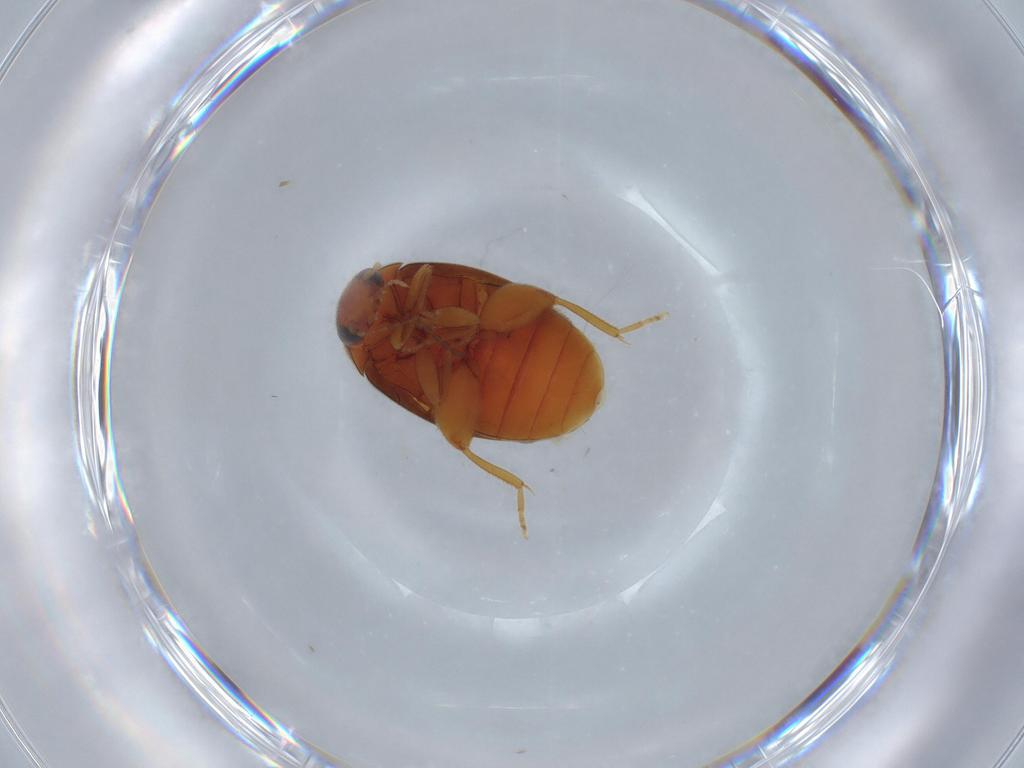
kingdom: Animalia
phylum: Arthropoda
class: Insecta
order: Coleoptera
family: Scirtidae
